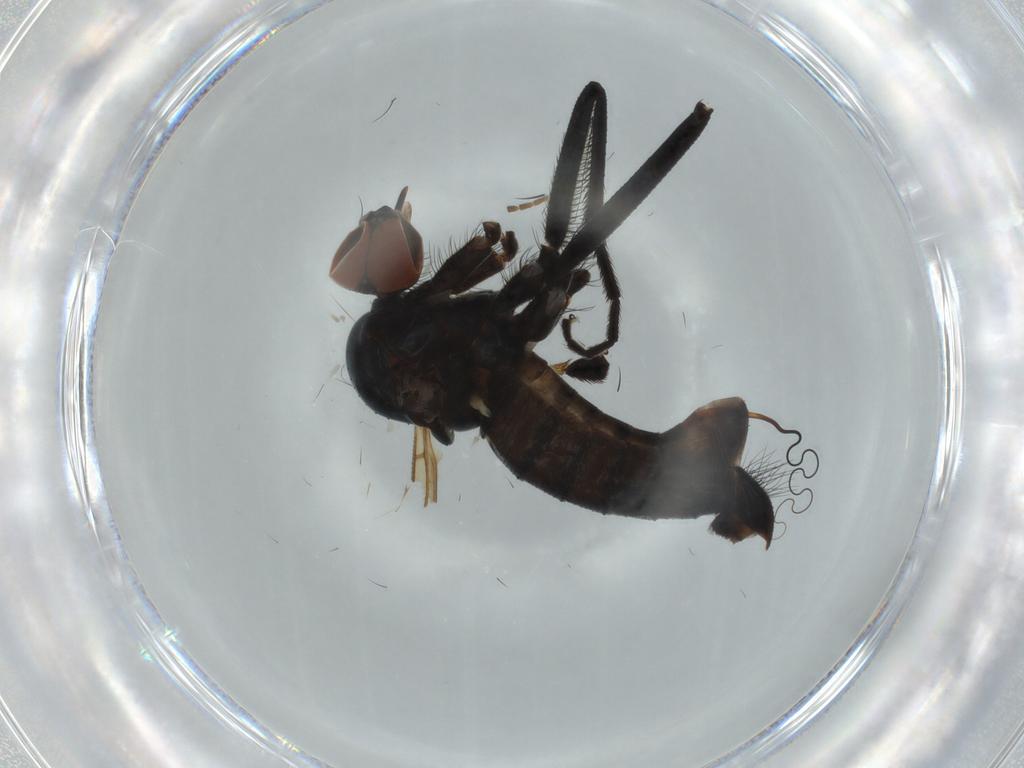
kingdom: Animalia
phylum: Arthropoda
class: Insecta
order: Diptera
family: Empididae
